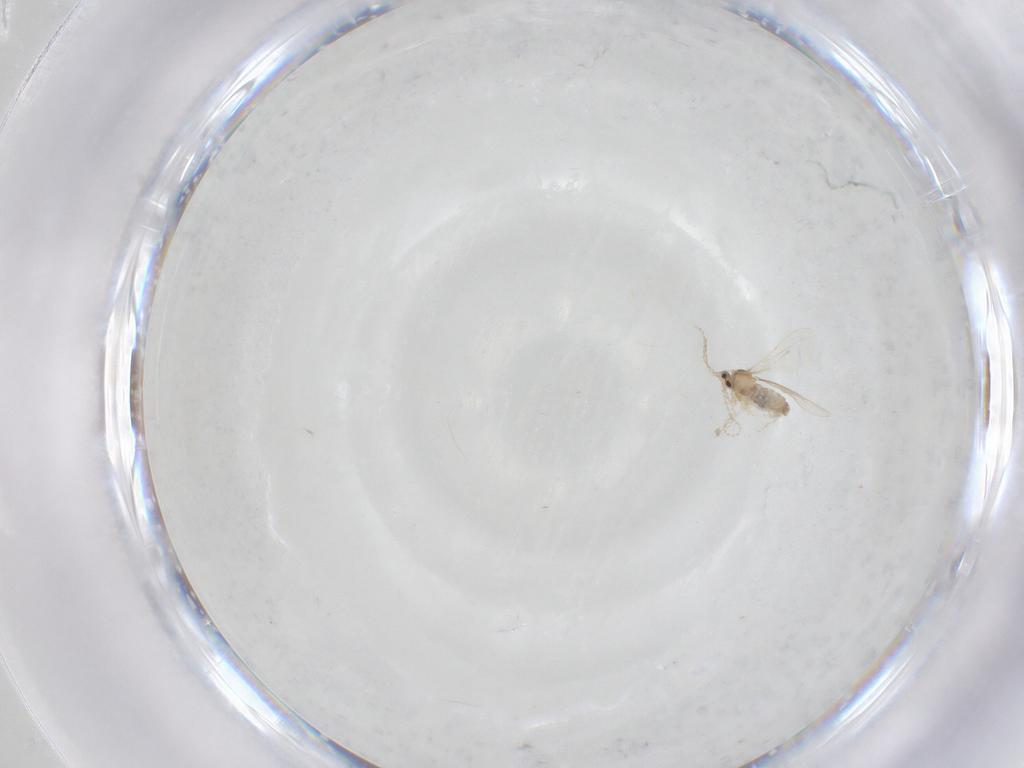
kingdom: Animalia
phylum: Arthropoda
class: Insecta
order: Diptera
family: Cecidomyiidae
